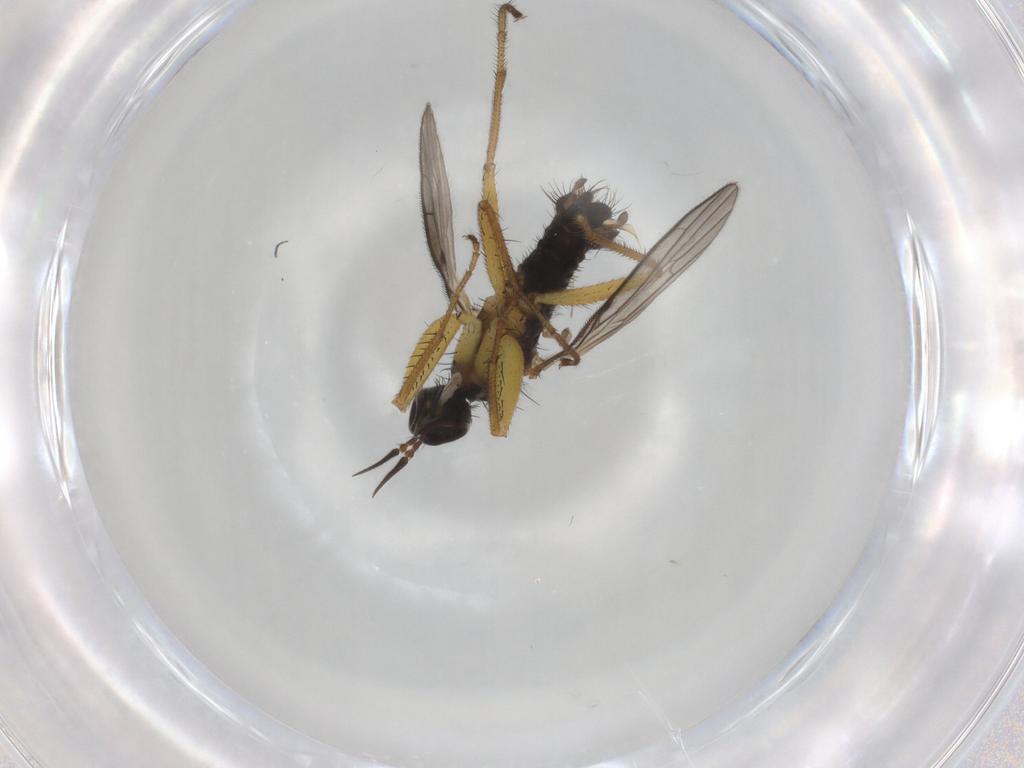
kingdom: Animalia
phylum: Arthropoda
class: Insecta
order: Diptera
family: Empididae
